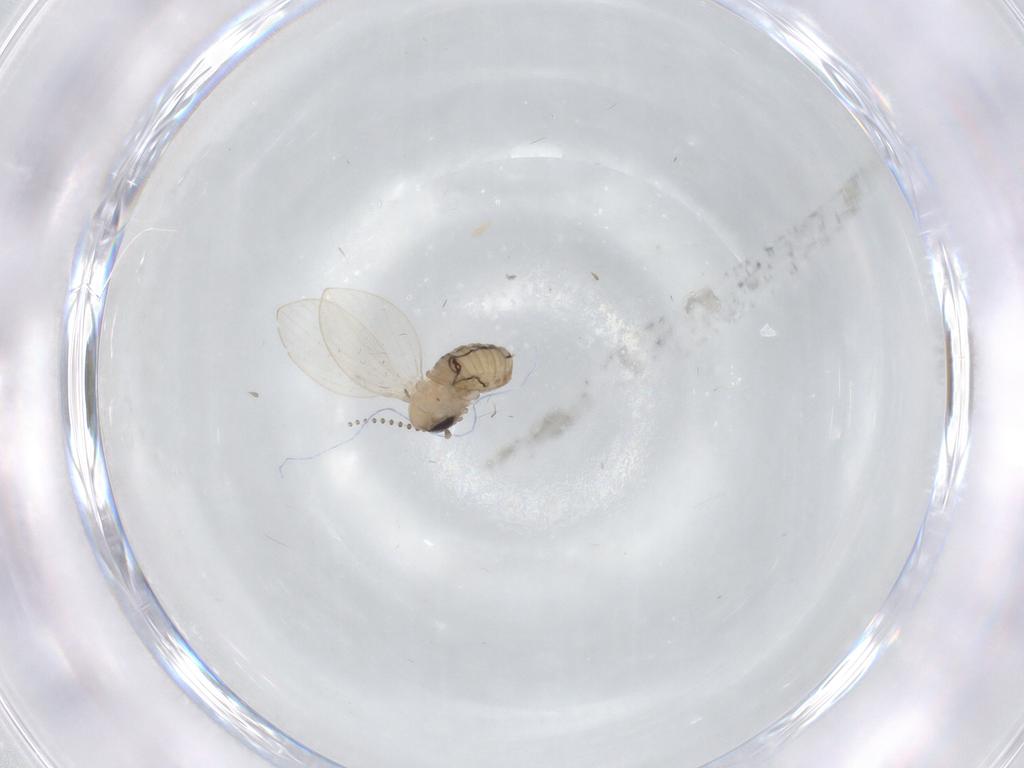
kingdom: Animalia
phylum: Arthropoda
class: Insecta
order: Diptera
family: Psychodidae
